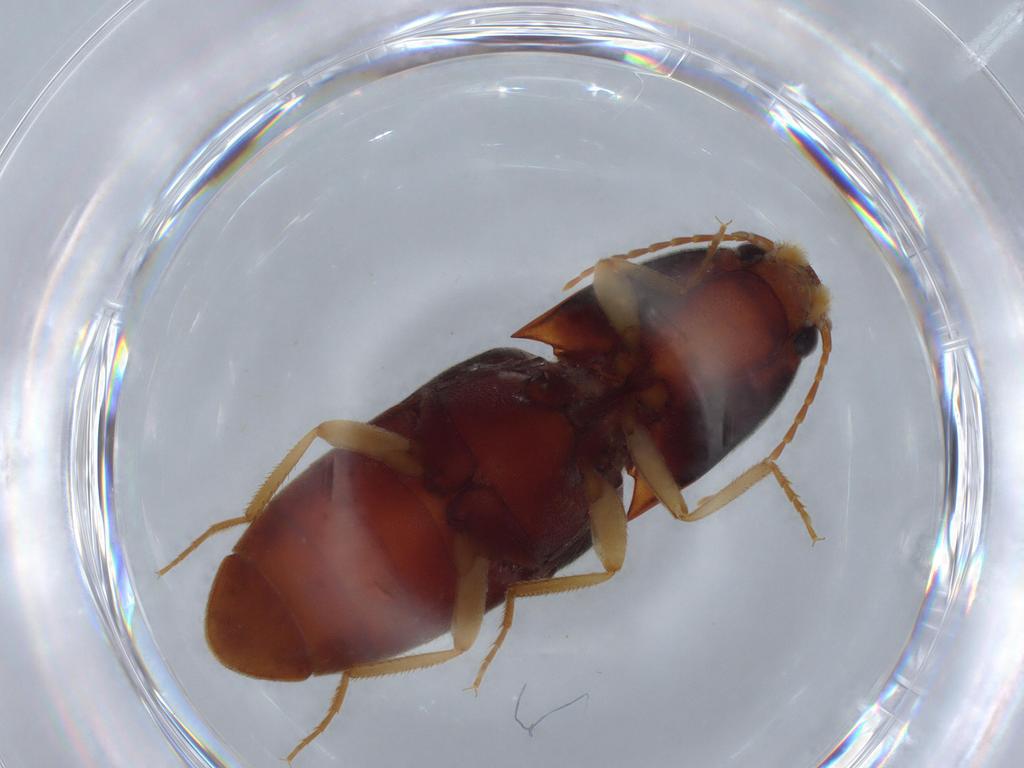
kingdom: Animalia
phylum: Arthropoda
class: Insecta
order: Coleoptera
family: Elateridae
